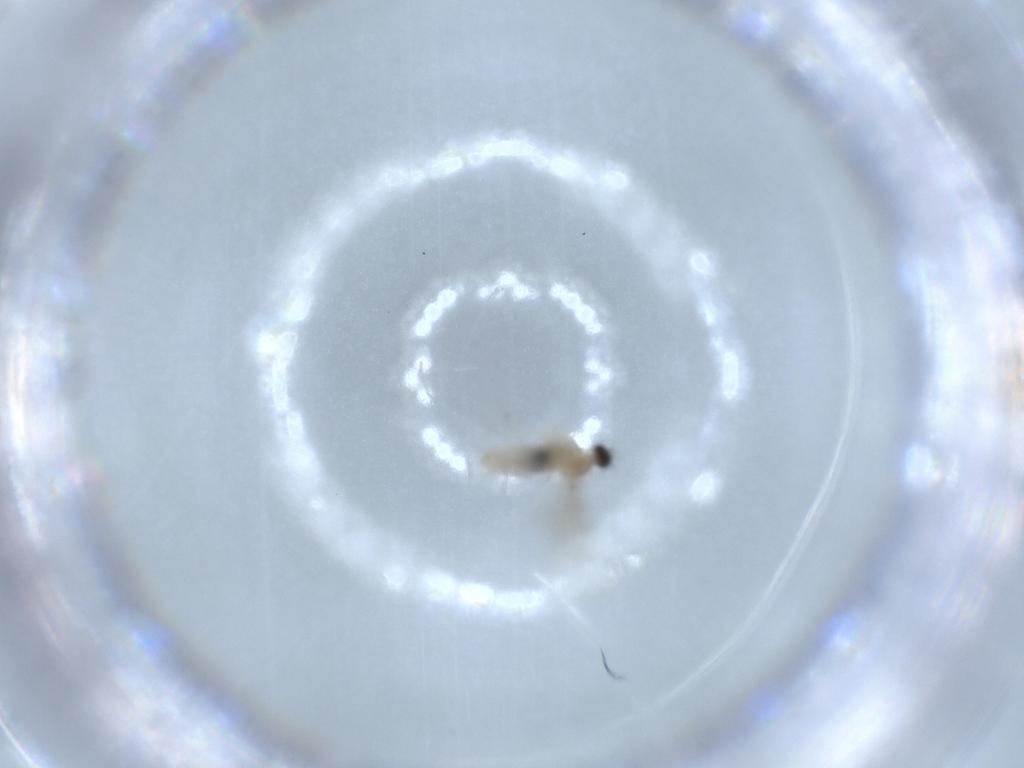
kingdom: Animalia
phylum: Arthropoda
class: Insecta
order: Diptera
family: Cecidomyiidae
